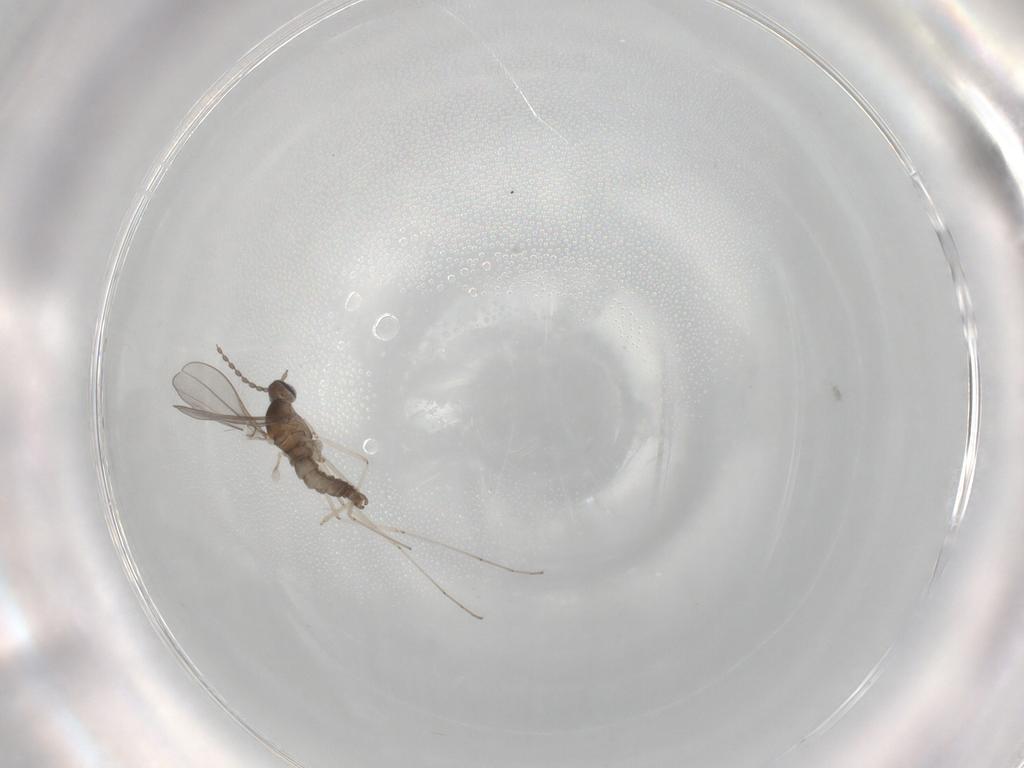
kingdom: Animalia
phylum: Arthropoda
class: Insecta
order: Diptera
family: Cecidomyiidae
